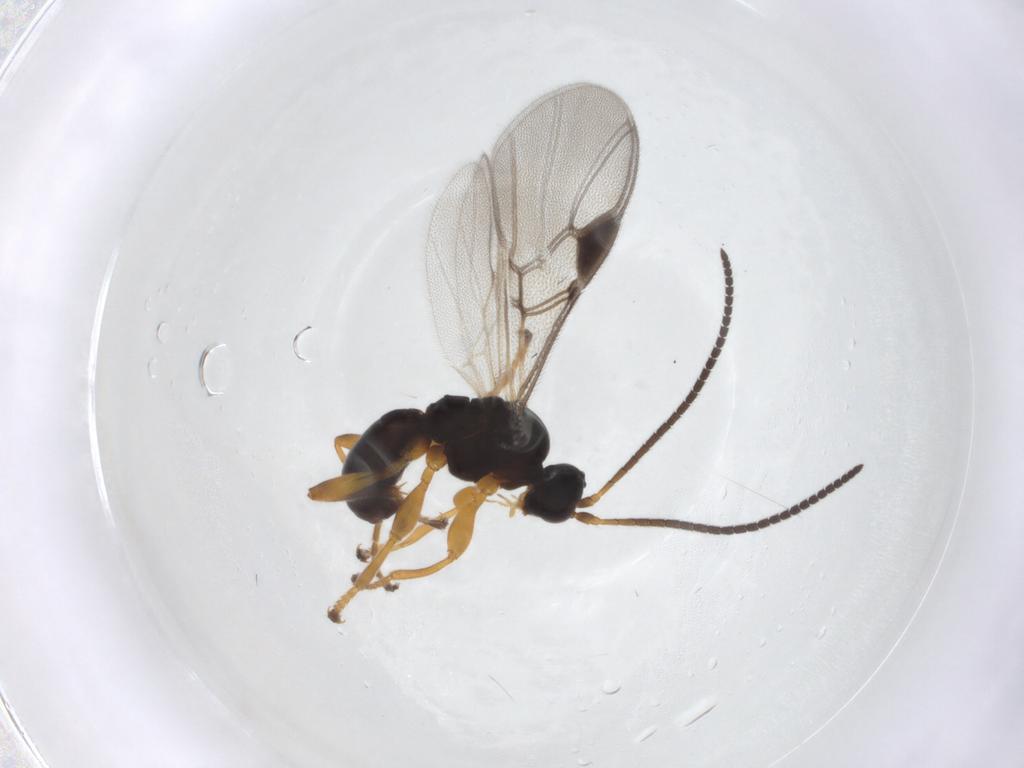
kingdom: Animalia
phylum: Arthropoda
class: Insecta
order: Hymenoptera
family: Braconidae
